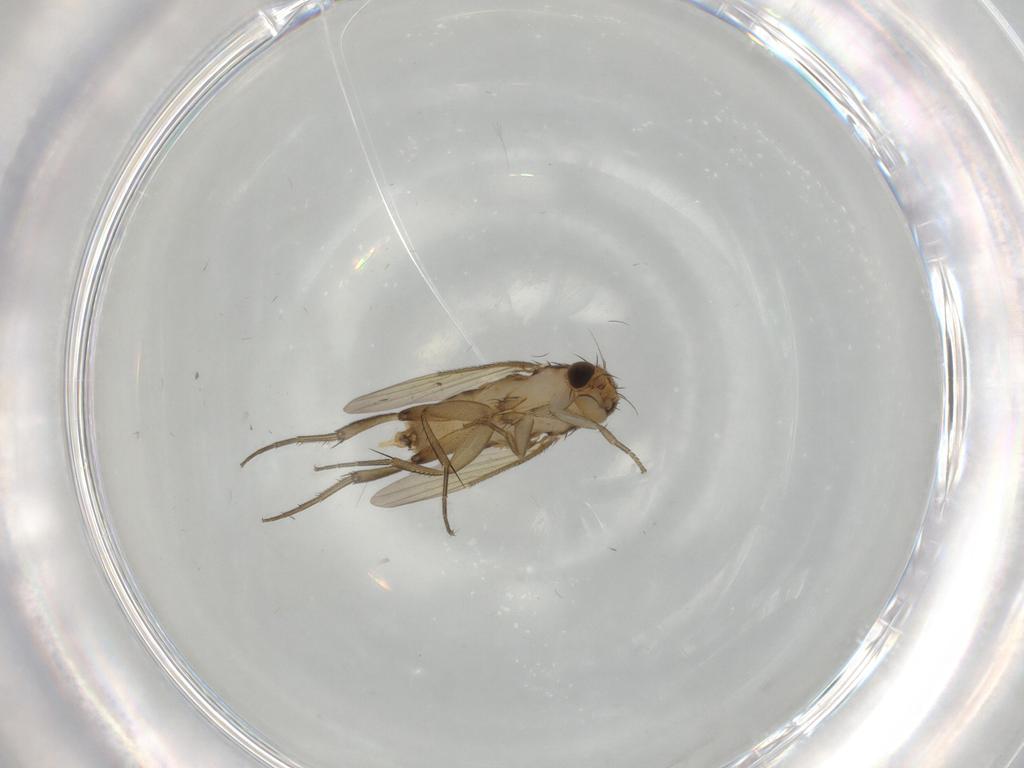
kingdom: Animalia
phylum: Arthropoda
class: Insecta
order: Diptera
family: Phoridae
